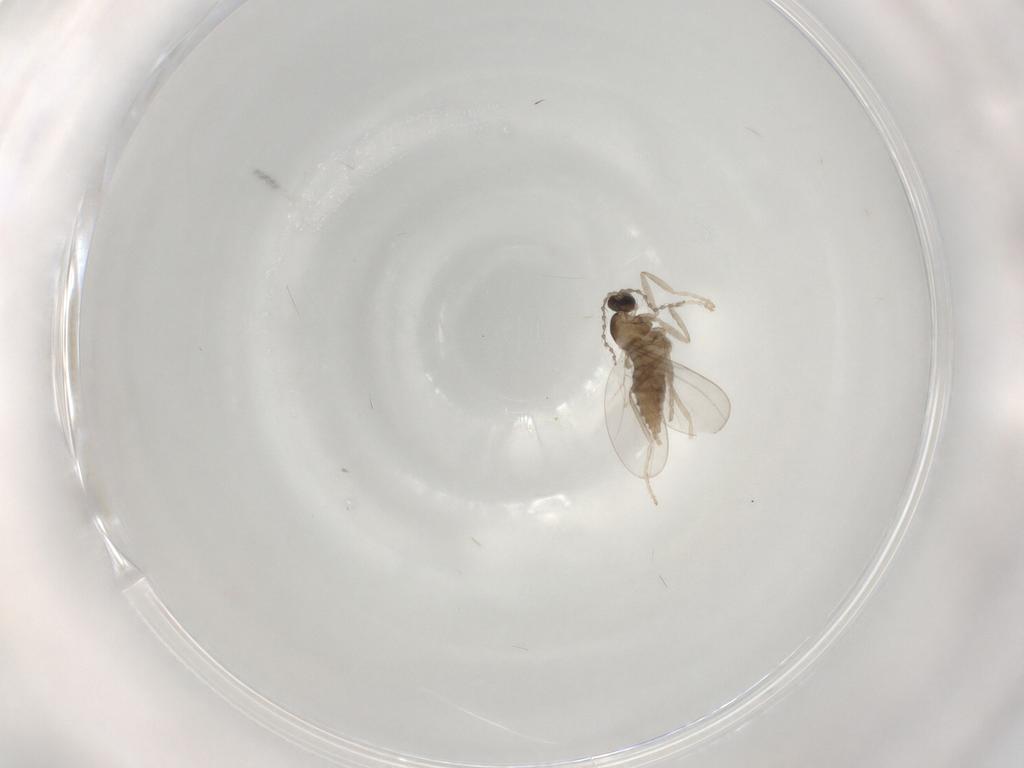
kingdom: Animalia
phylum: Arthropoda
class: Insecta
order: Diptera
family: Cecidomyiidae
